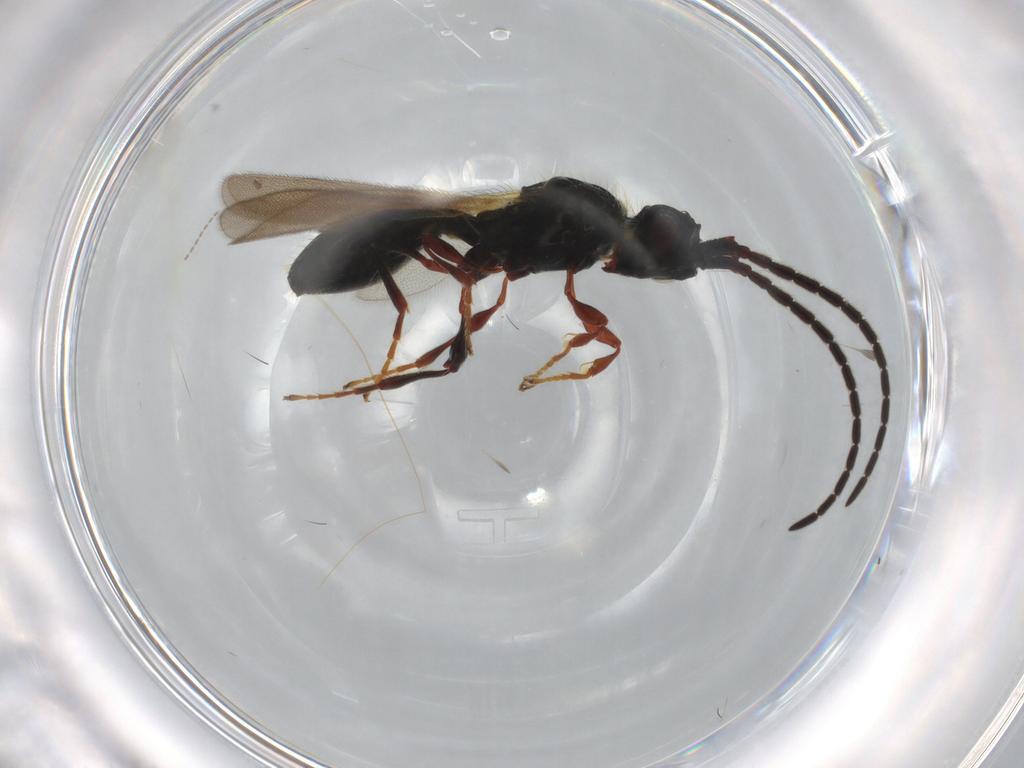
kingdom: Animalia
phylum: Arthropoda
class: Insecta
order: Hymenoptera
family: Diapriidae
